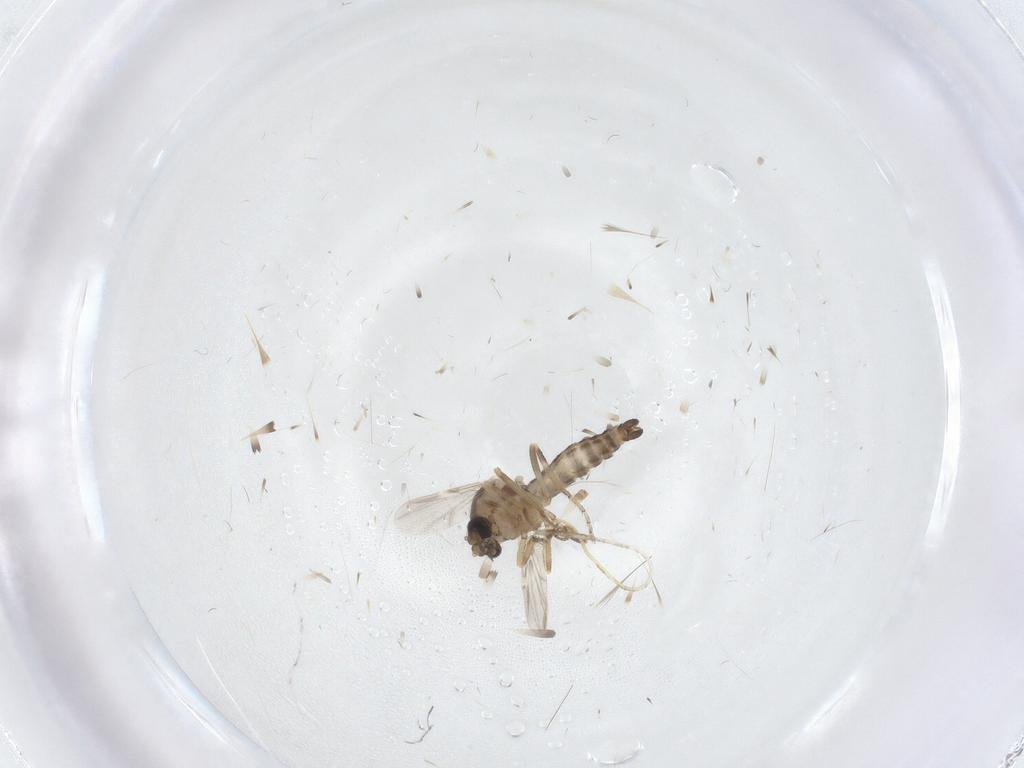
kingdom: Animalia
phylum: Arthropoda
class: Insecta
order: Diptera
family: Ceratopogonidae
